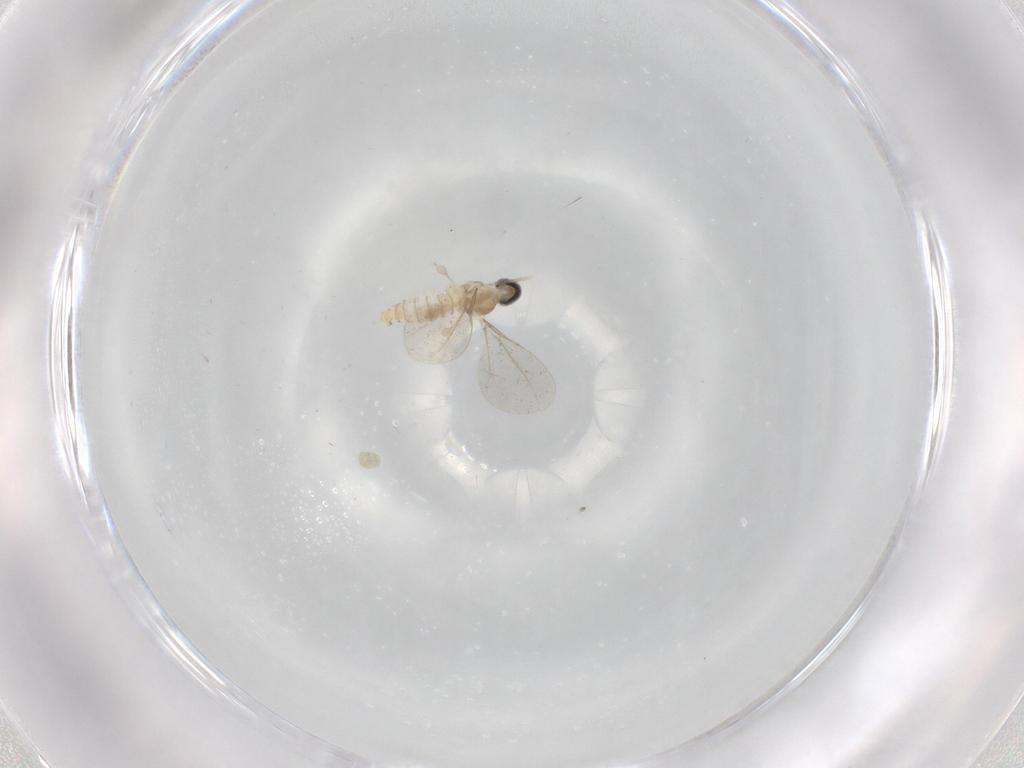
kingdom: Animalia
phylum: Arthropoda
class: Insecta
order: Diptera
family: Cecidomyiidae
